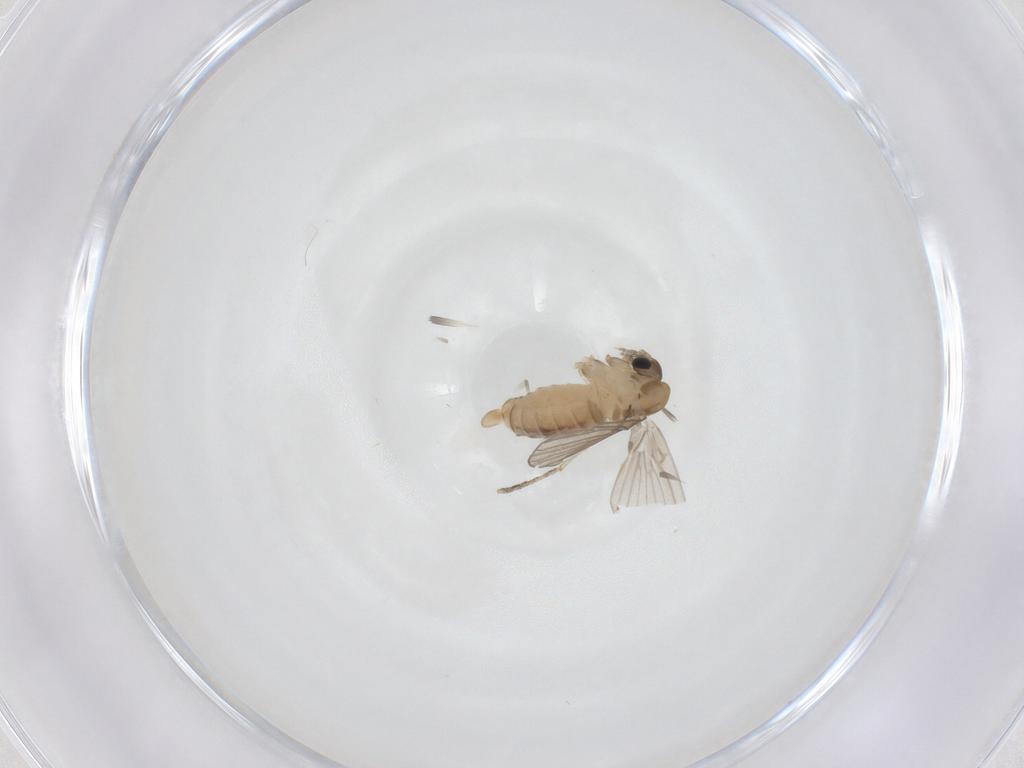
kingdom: Animalia
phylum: Arthropoda
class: Insecta
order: Diptera
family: Psychodidae
